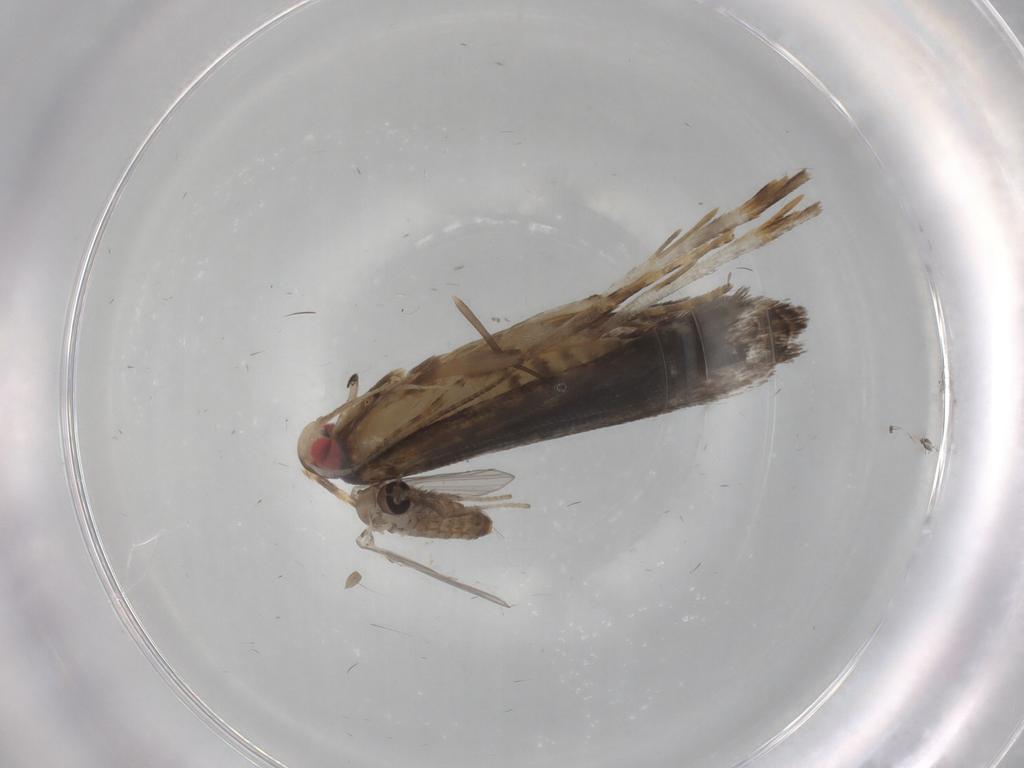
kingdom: Animalia
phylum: Arthropoda
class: Insecta
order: Diptera
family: Psychodidae
